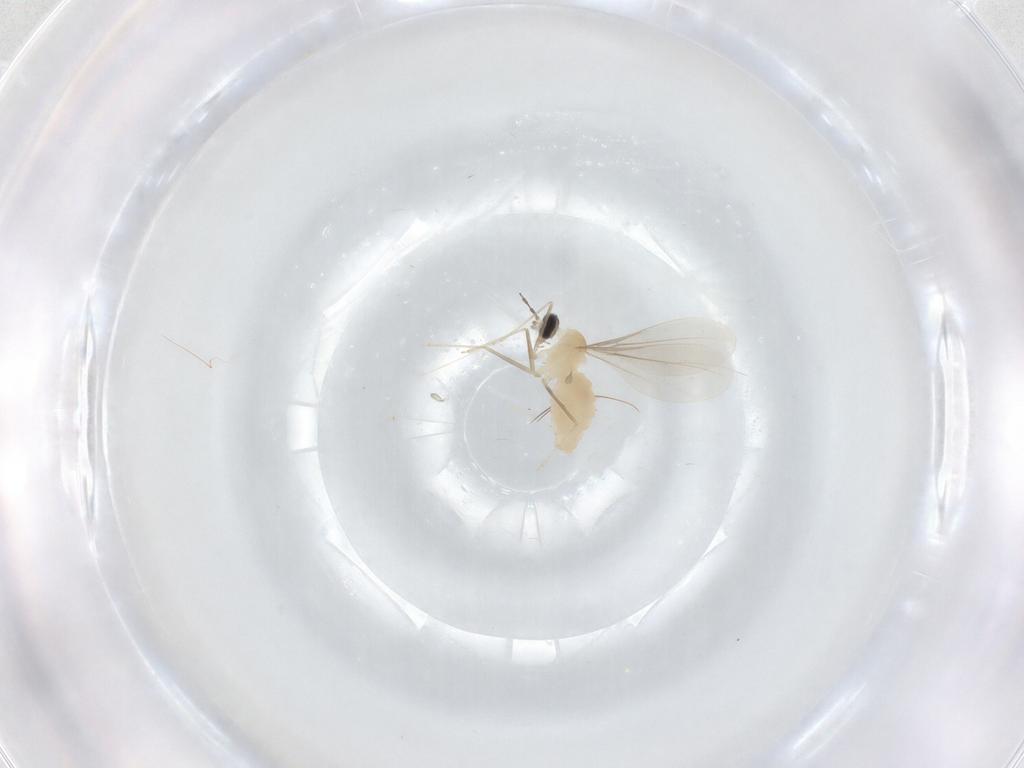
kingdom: Animalia
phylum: Arthropoda
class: Insecta
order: Diptera
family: Cecidomyiidae
